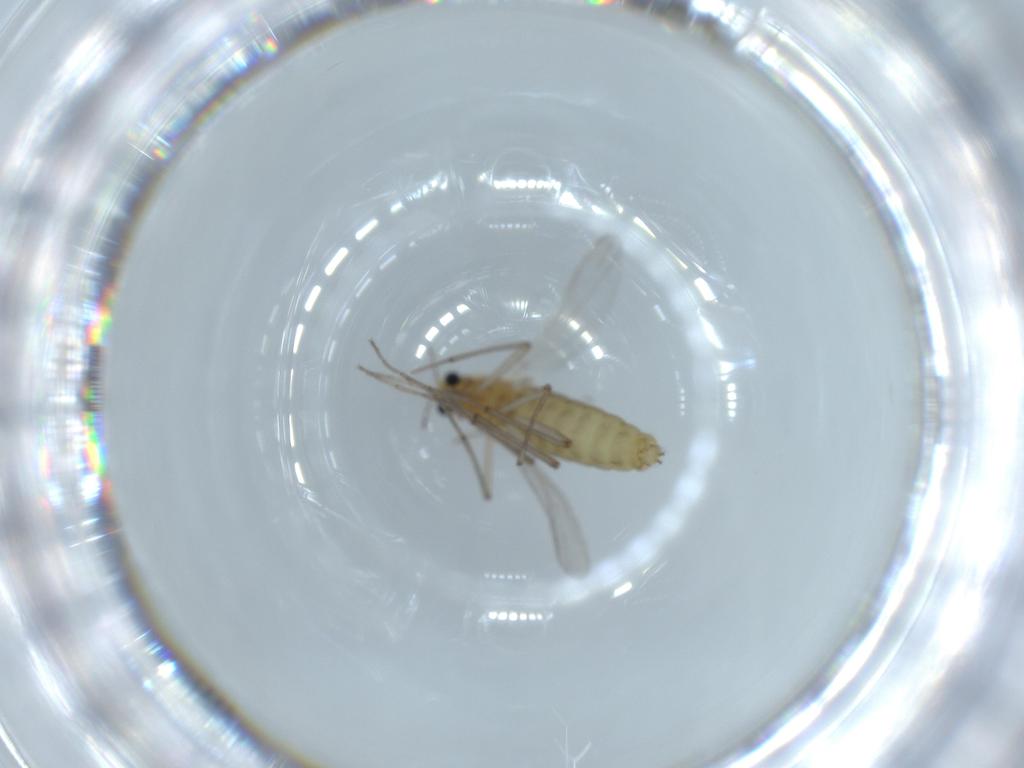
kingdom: Animalia
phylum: Arthropoda
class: Insecta
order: Diptera
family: Chironomidae
